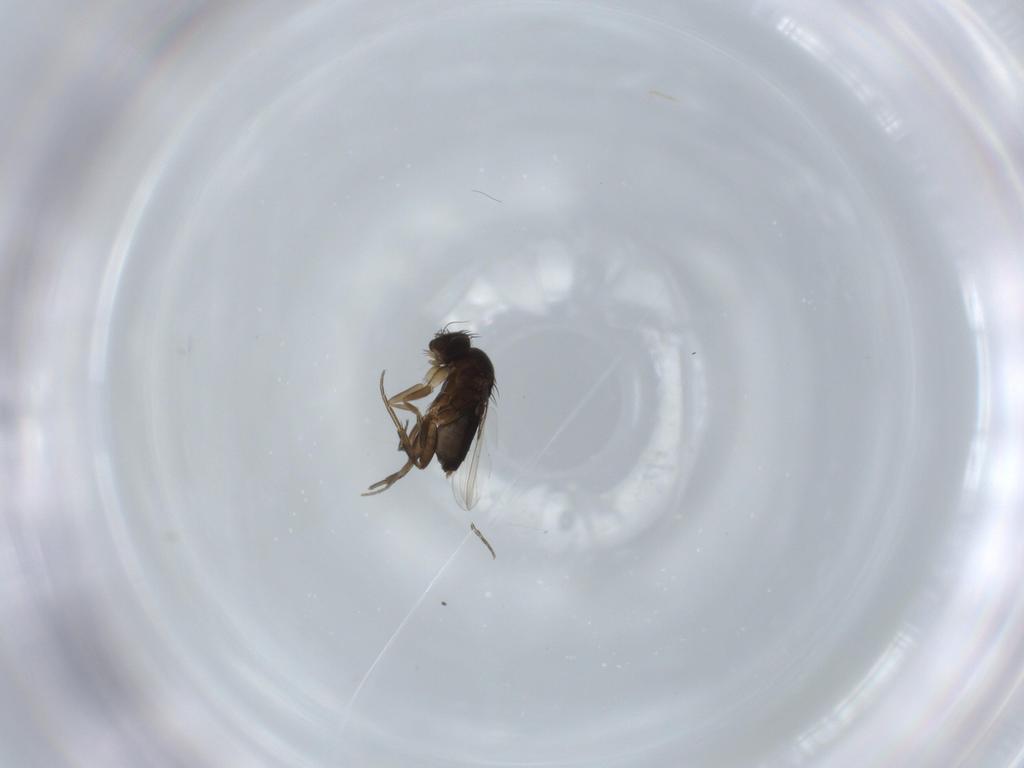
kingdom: Animalia
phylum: Arthropoda
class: Insecta
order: Diptera
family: Phoridae
